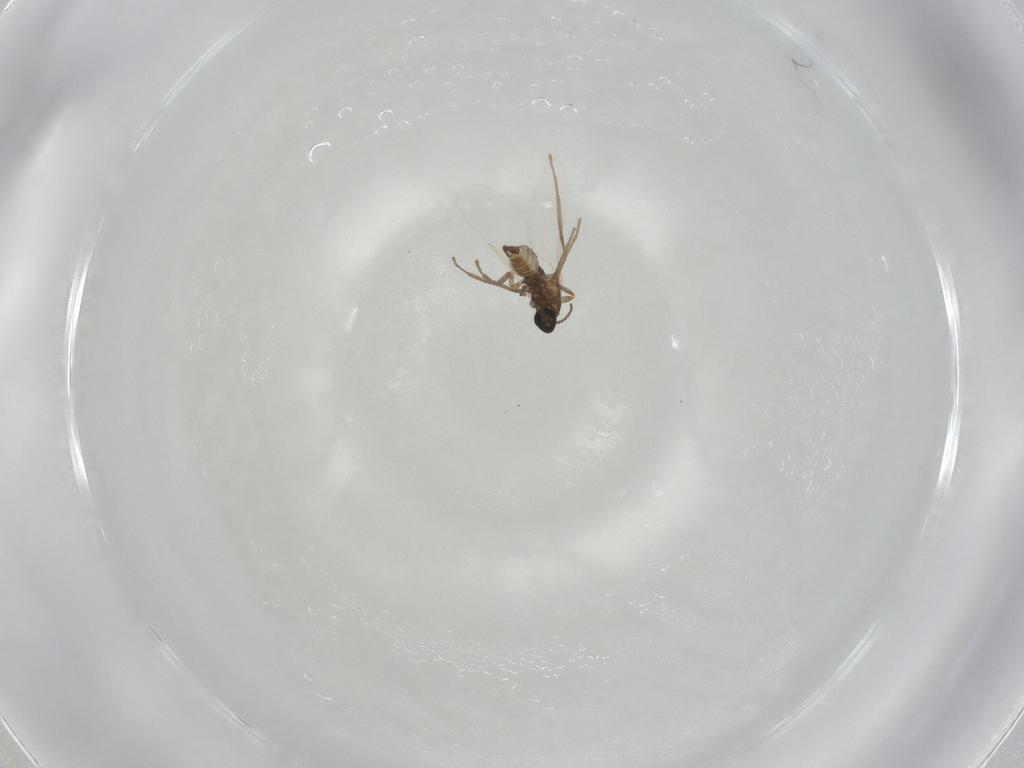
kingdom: Animalia
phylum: Arthropoda
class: Insecta
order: Diptera
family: Cecidomyiidae
